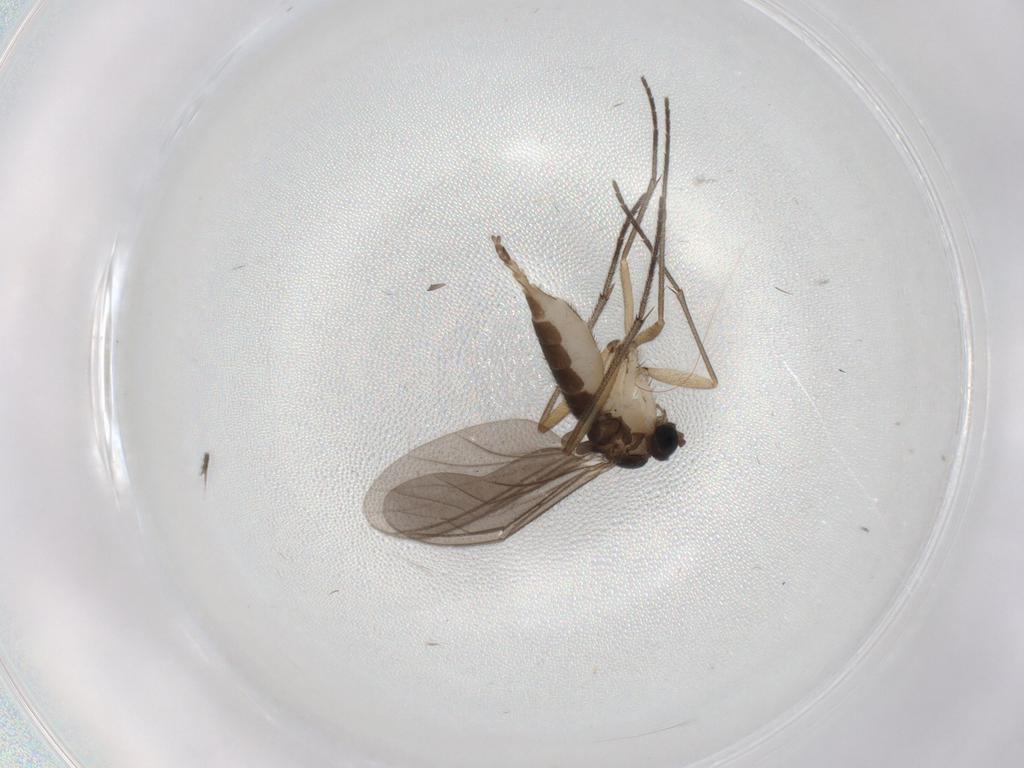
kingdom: Animalia
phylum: Arthropoda
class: Insecta
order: Diptera
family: Sciaridae
